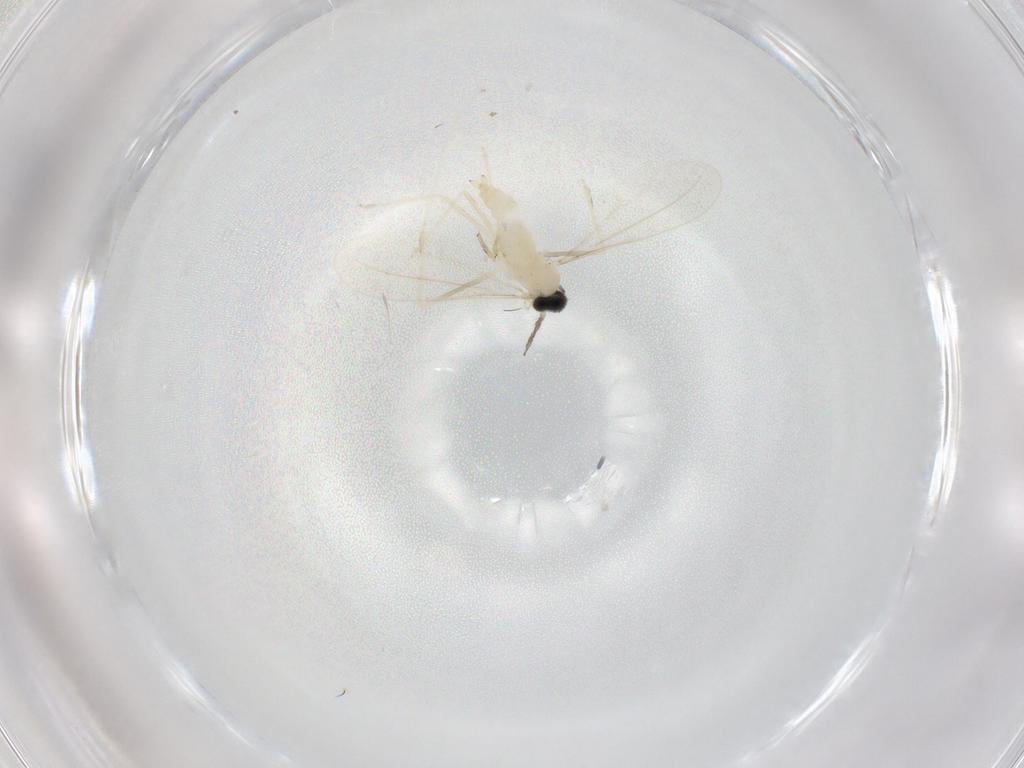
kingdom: Animalia
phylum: Arthropoda
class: Insecta
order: Diptera
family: Cecidomyiidae
